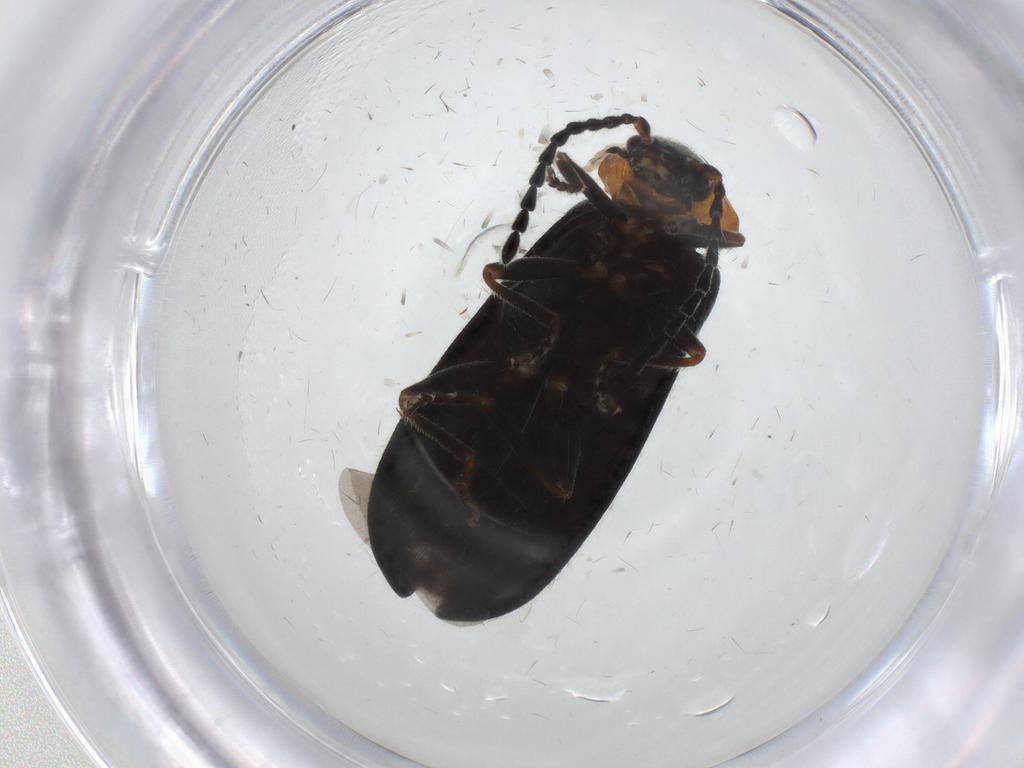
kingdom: Animalia
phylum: Arthropoda
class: Insecta
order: Coleoptera
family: Cantharidae
